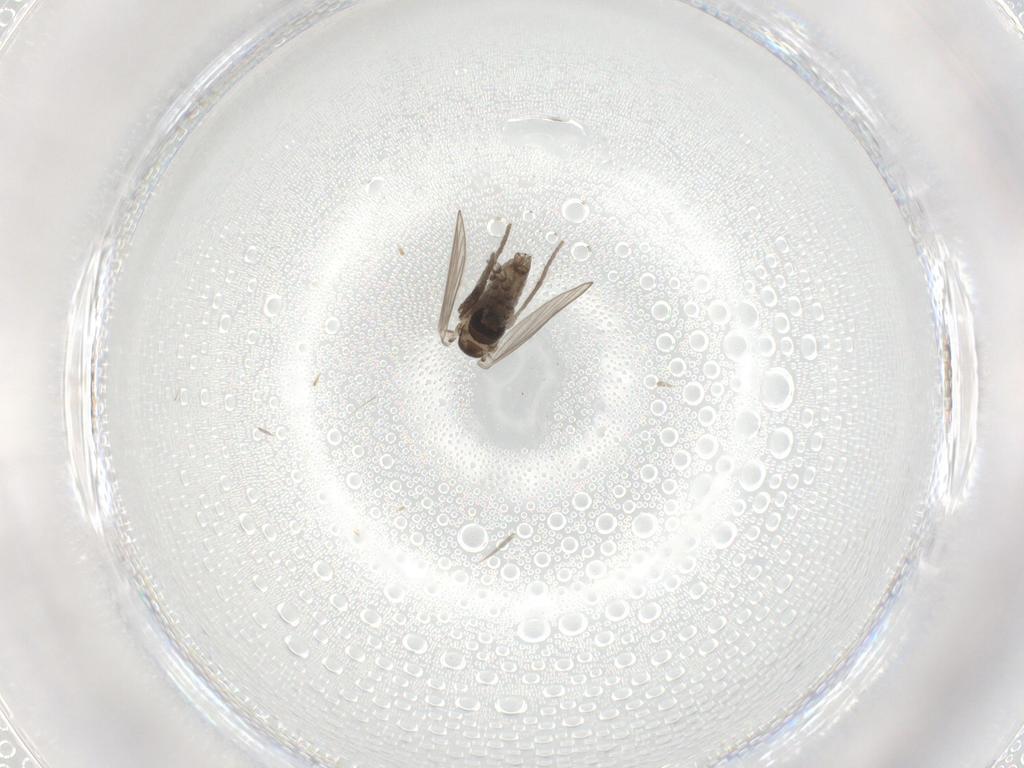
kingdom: Animalia
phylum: Arthropoda
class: Insecta
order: Diptera
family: Psychodidae
